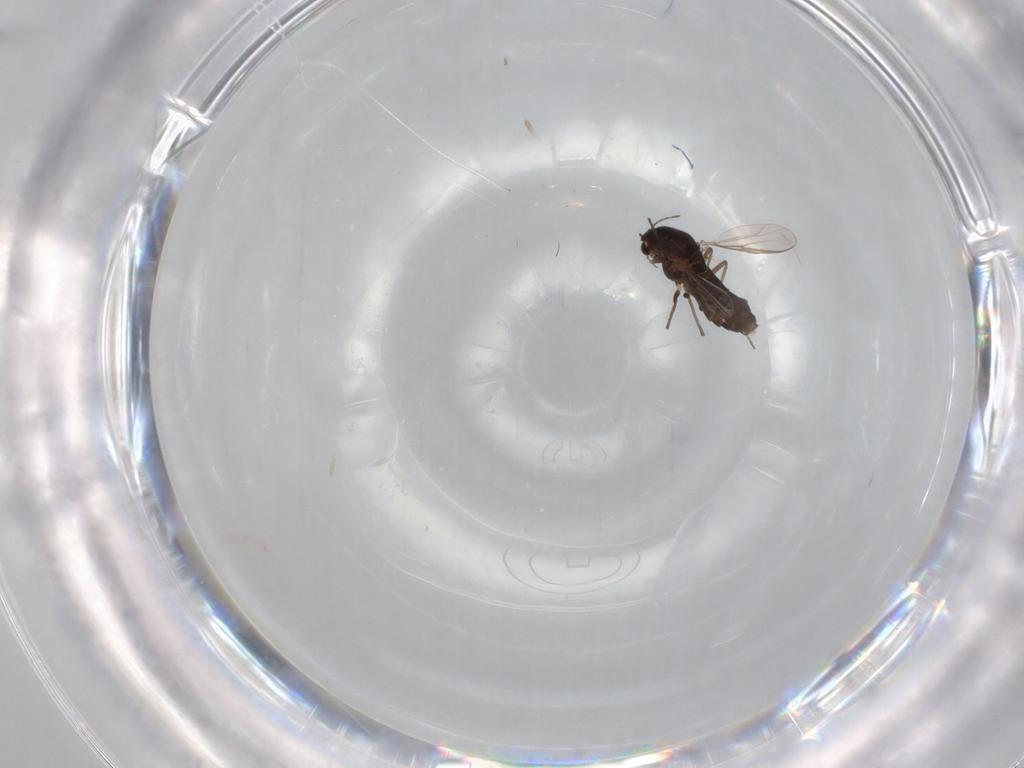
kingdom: Animalia
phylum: Arthropoda
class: Insecta
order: Diptera
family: Chironomidae
